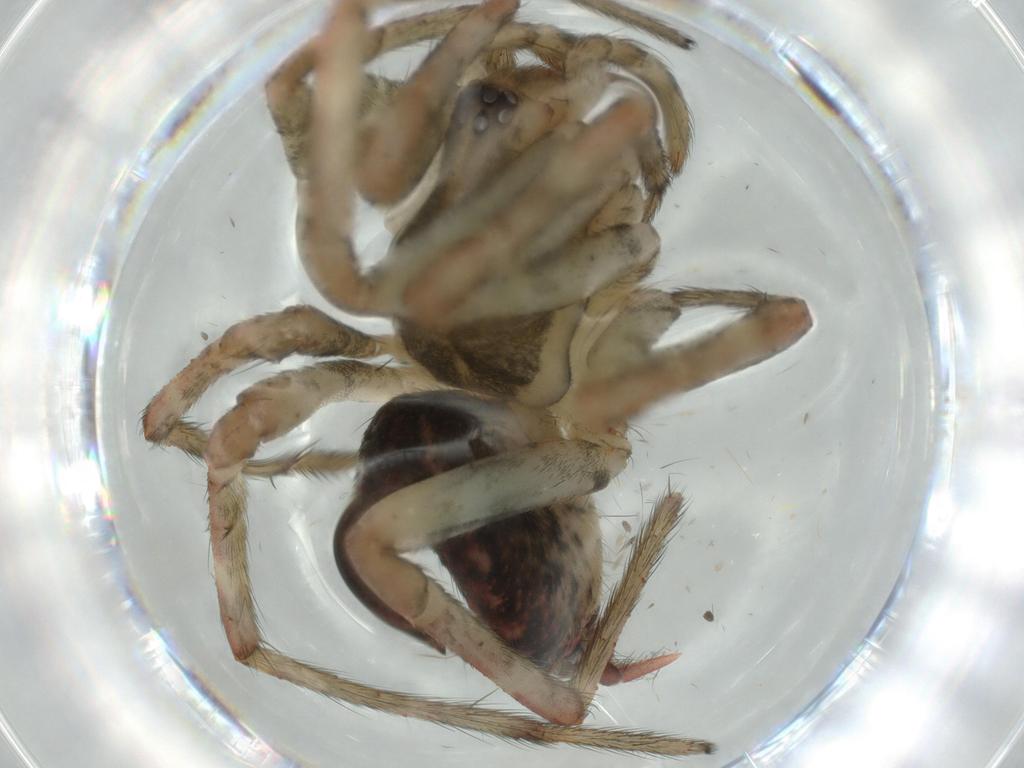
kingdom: Animalia
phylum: Arthropoda
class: Arachnida
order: Araneae
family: Agelenidae
